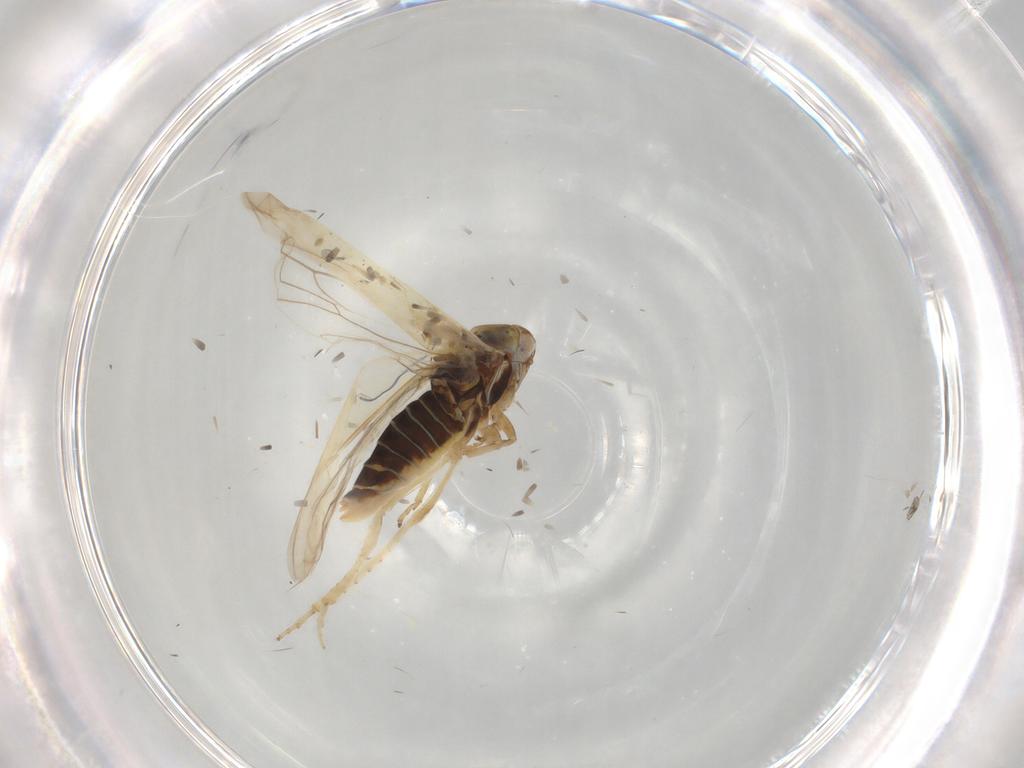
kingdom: Animalia
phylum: Arthropoda
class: Insecta
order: Hemiptera
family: Cicadellidae
